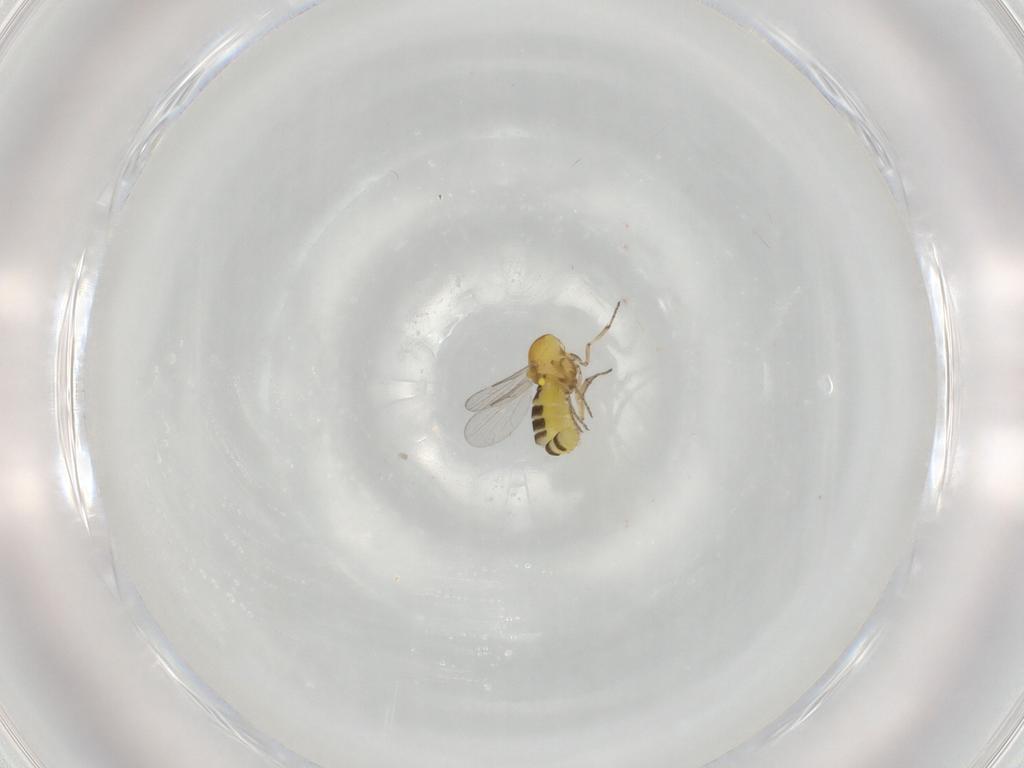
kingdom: Animalia
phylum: Arthropoda
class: Insecta
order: Diptera
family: Ceratopogonidae
